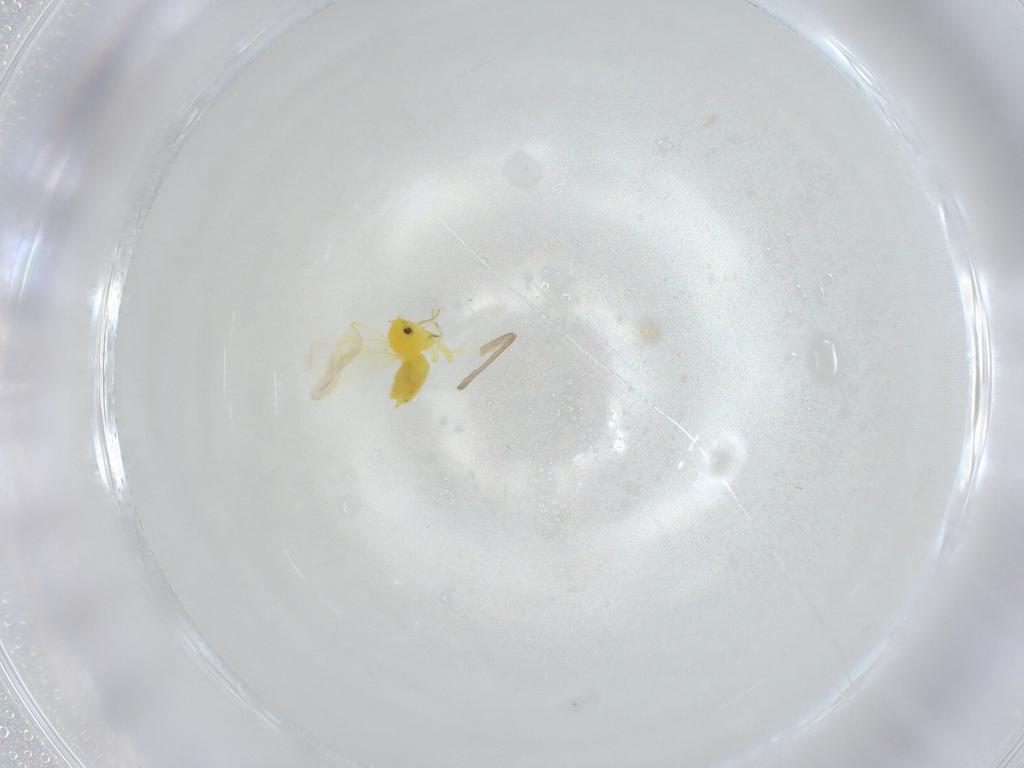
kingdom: Animalia
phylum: Arthropoda
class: Insecta
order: Diptera
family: Cecidomyiidae
